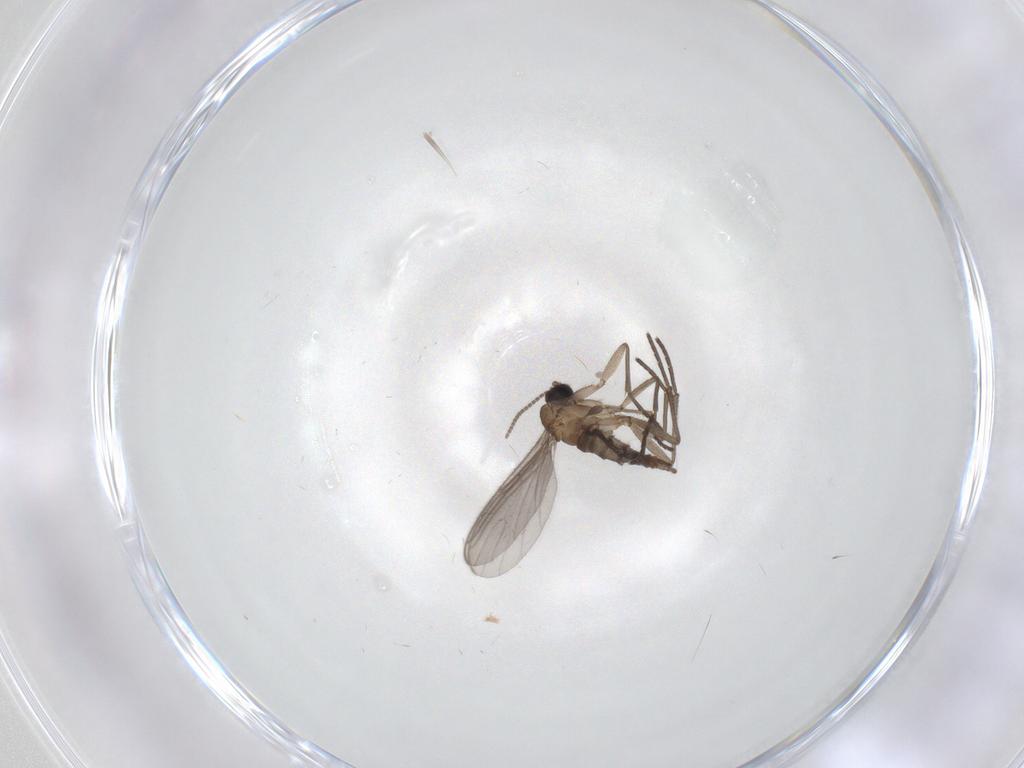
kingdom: Animalia
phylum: Arthropoda
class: Insecta
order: Diptera
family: Sciaridae
